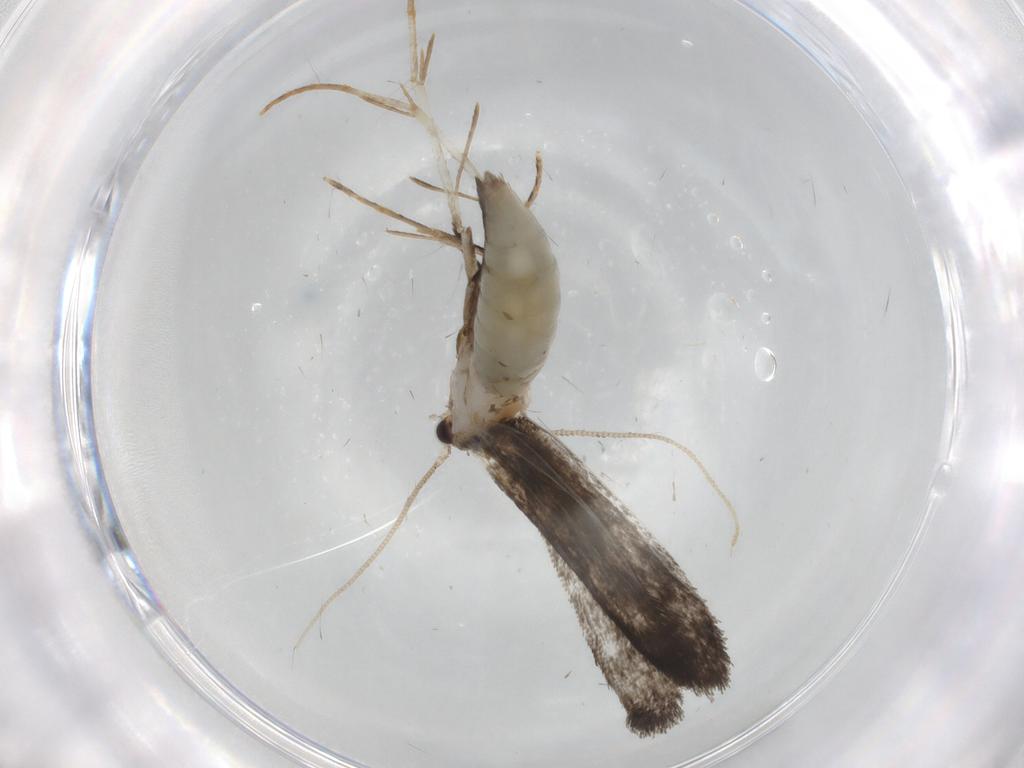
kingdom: Animalia
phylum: Arthropoda
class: Insecta
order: Lepidoptera
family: Tineidae
